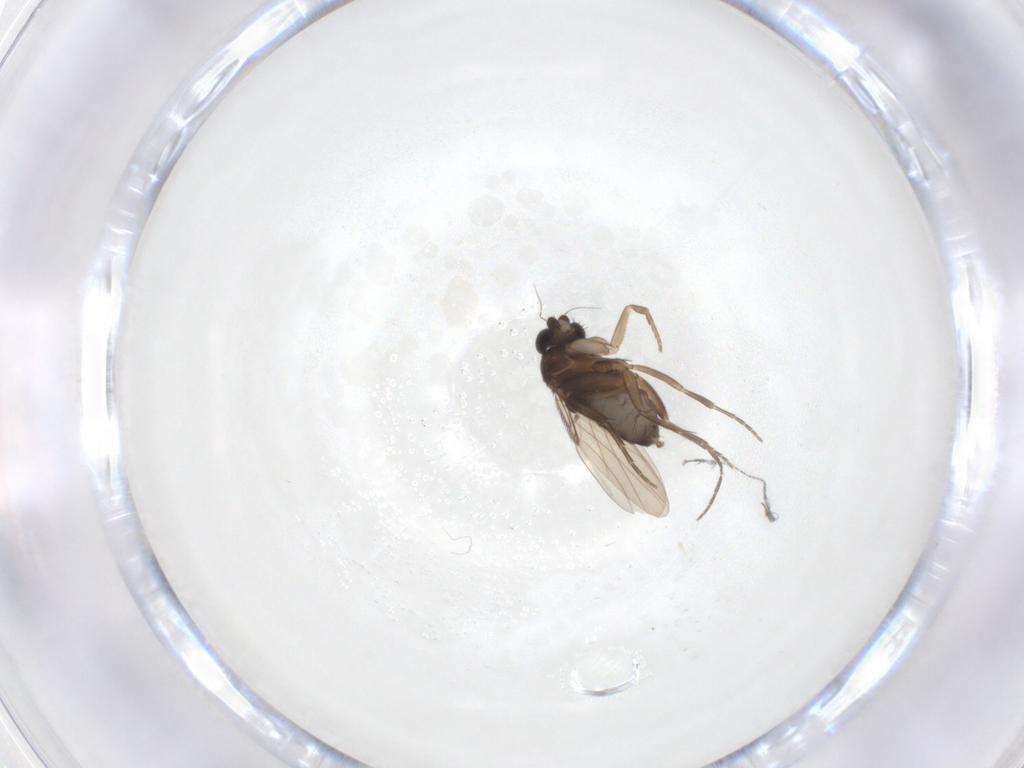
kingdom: Animalia
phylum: Arthropoda
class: Insecta
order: Diptera
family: Phoridae
